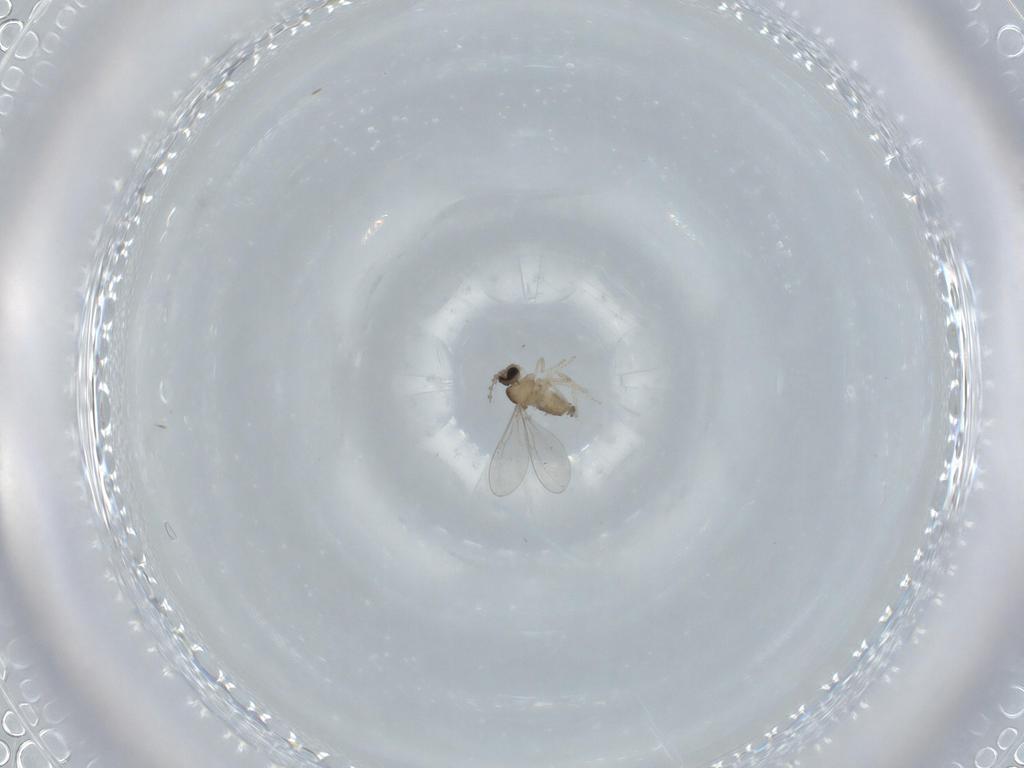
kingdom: Animalia
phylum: Arthropoda
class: Insecta
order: Diptera
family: Cecidomyiidae
